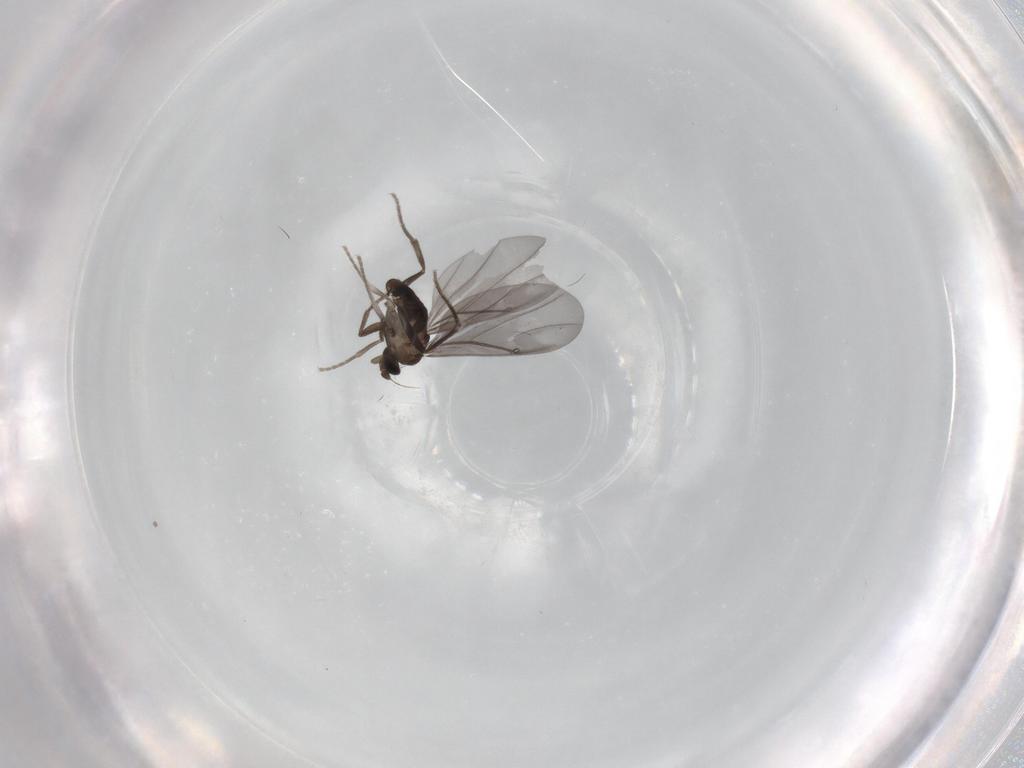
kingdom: Animalia
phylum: Arthropoda
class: Insecta
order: Diptera
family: Phoridae
